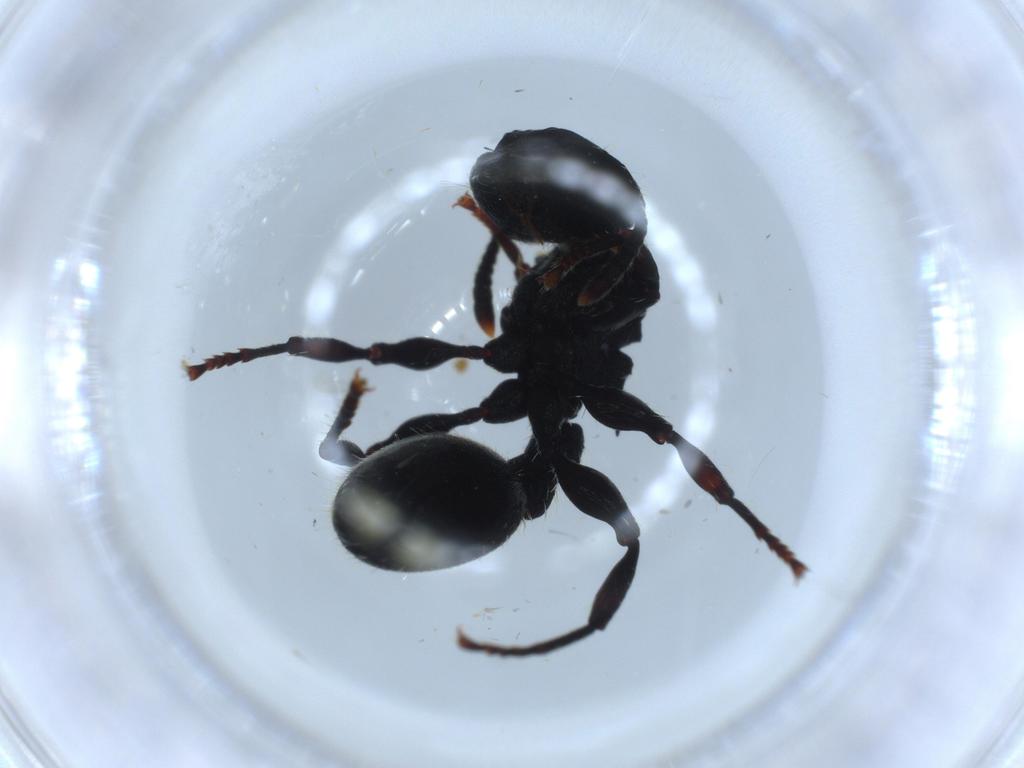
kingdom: Animalia
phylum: Arthropoda
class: Insecta
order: Hymenoptera
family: Formicidae
